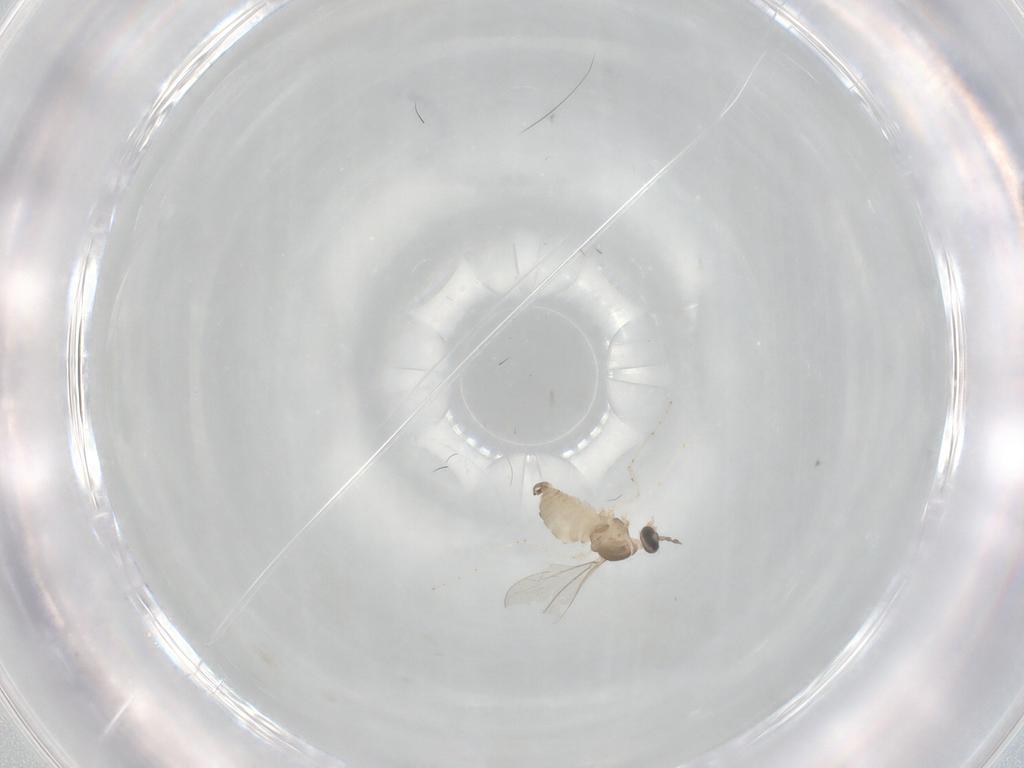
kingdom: Animalia
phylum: Arthropoda
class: Insecta
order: Diptera
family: Cecidomyiidae
